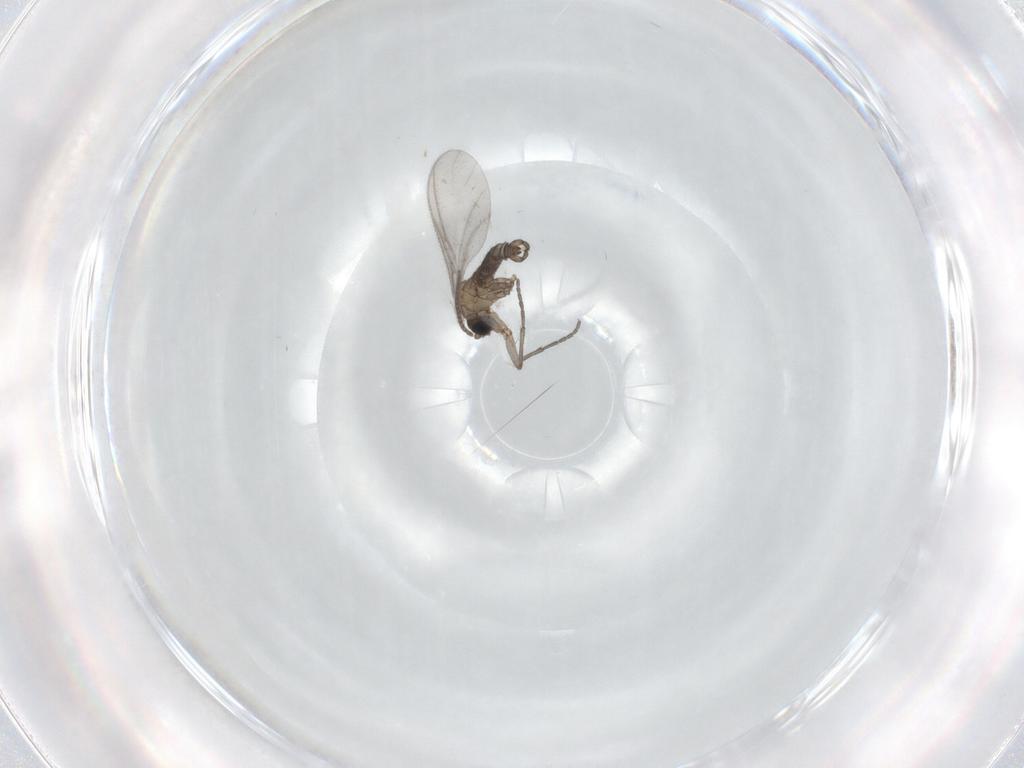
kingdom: Animalia
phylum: Arthropoda
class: Insecta
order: Diptera
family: Sciaridae
